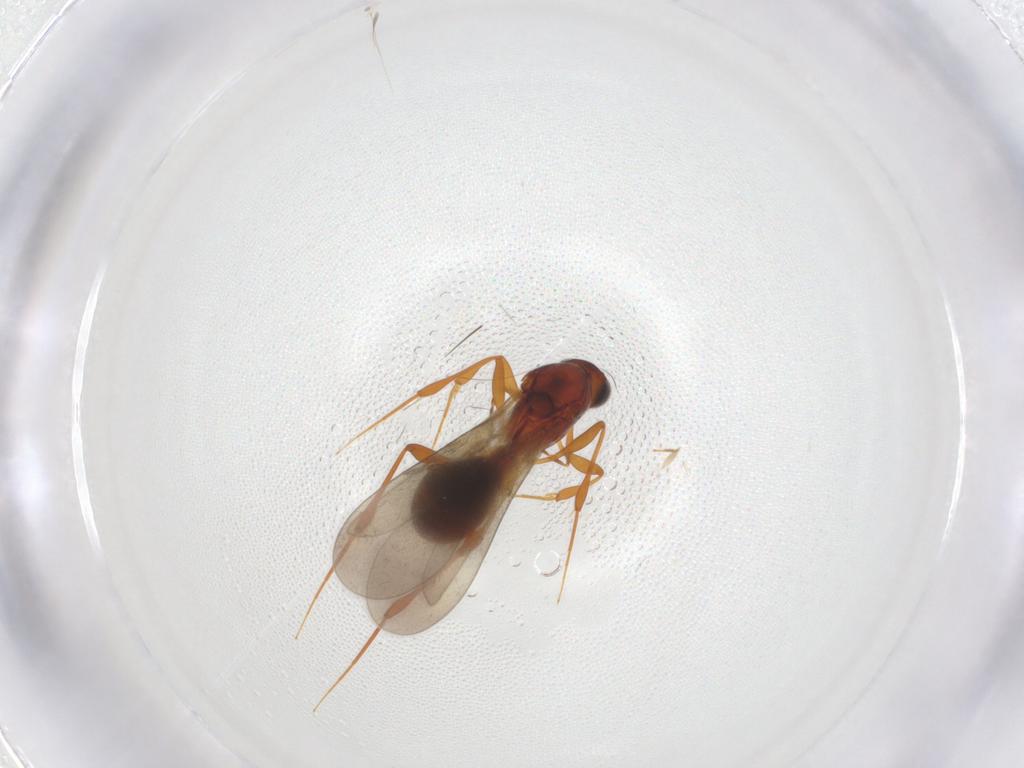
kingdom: Animalia
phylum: Arthropoda
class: Insecta
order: Hymenoptera
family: Platygastridae
